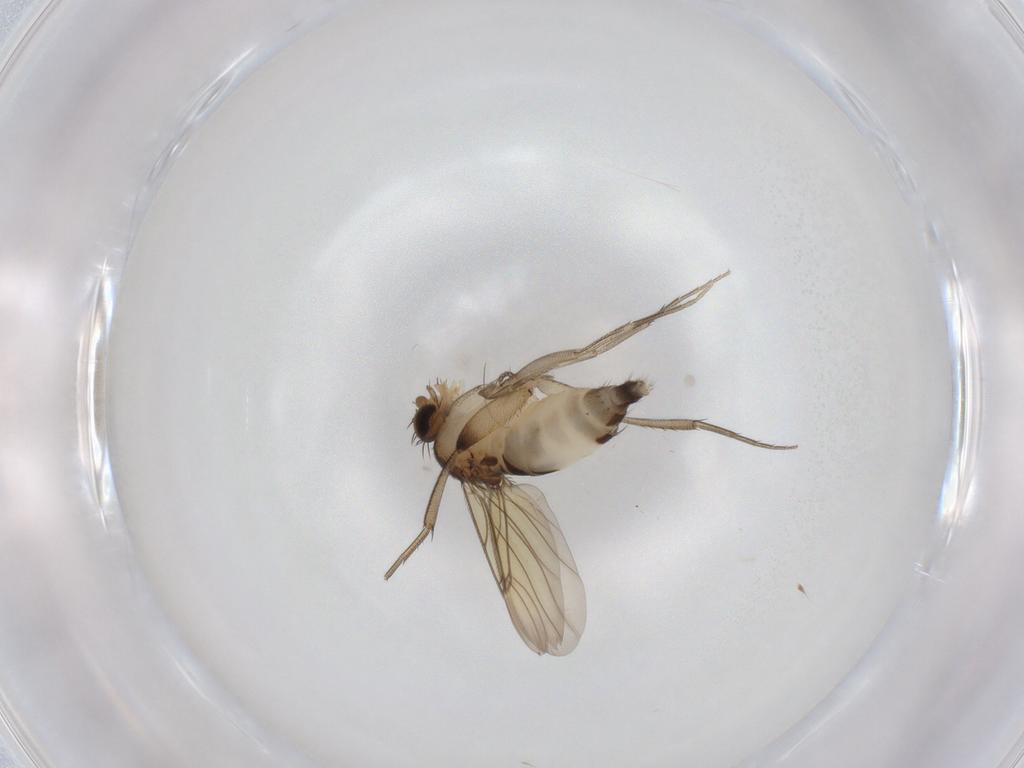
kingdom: Animalia
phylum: Arthropoda
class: Insecta
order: Diptera
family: Phoridae
